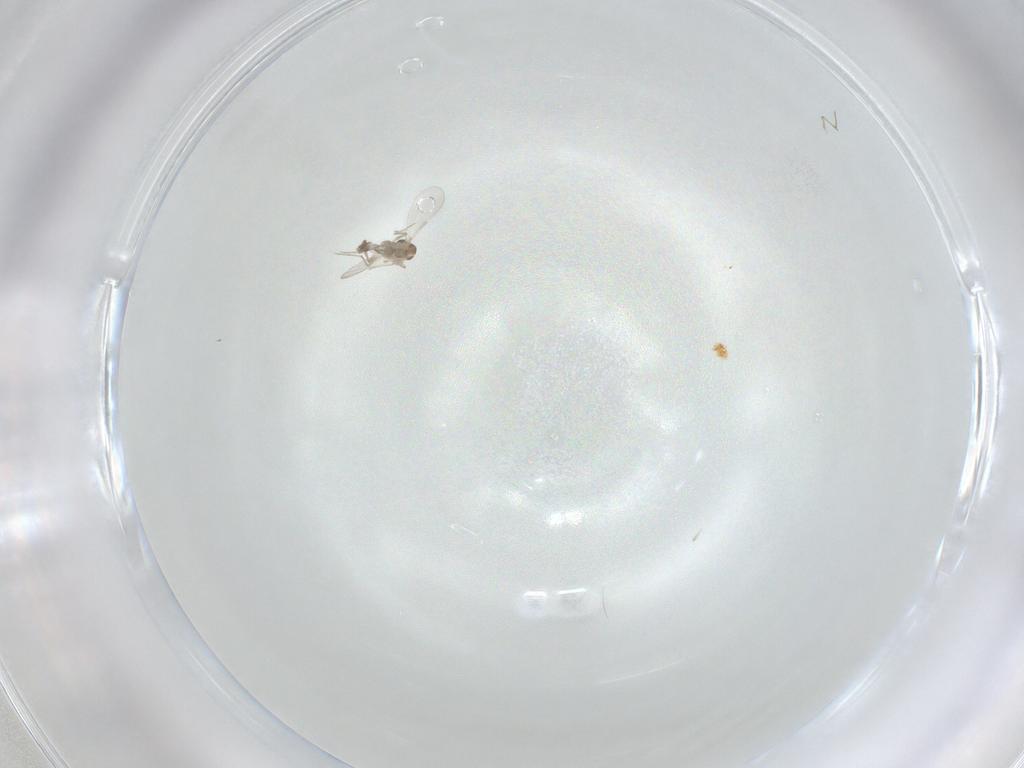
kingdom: Animalia
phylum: Arthropoda
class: Insecta
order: Diptera
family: Chironomidae
